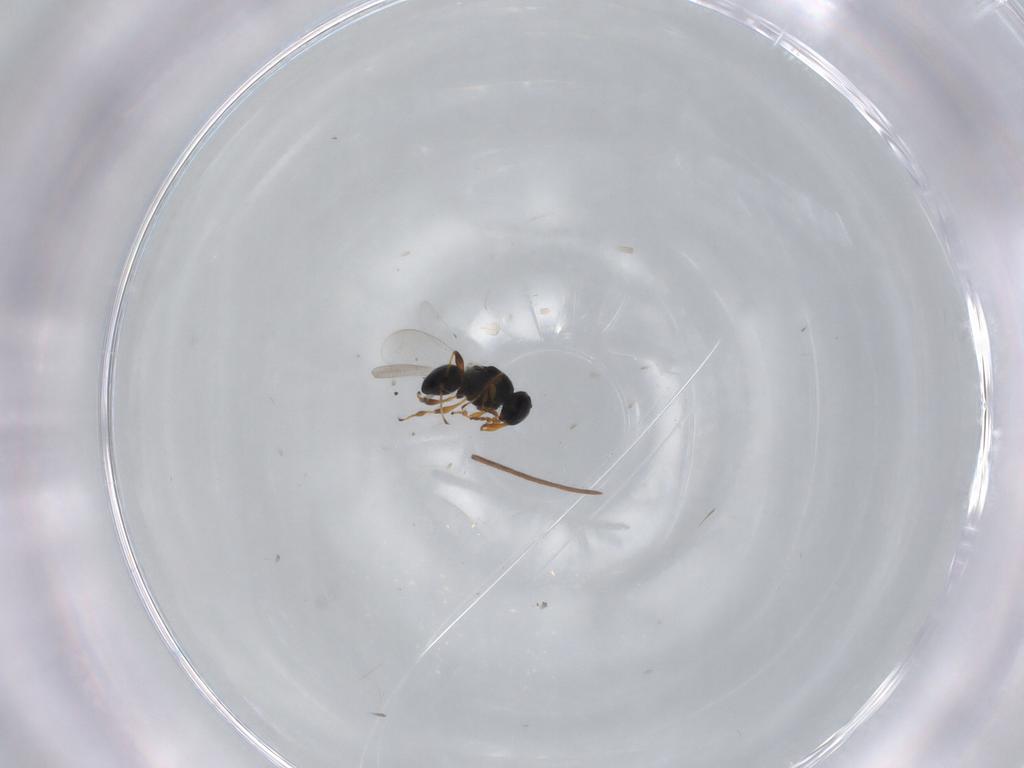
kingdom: Animalia
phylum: Arthropoda
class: Insecta
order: Hymenoptera
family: Platygastridae
